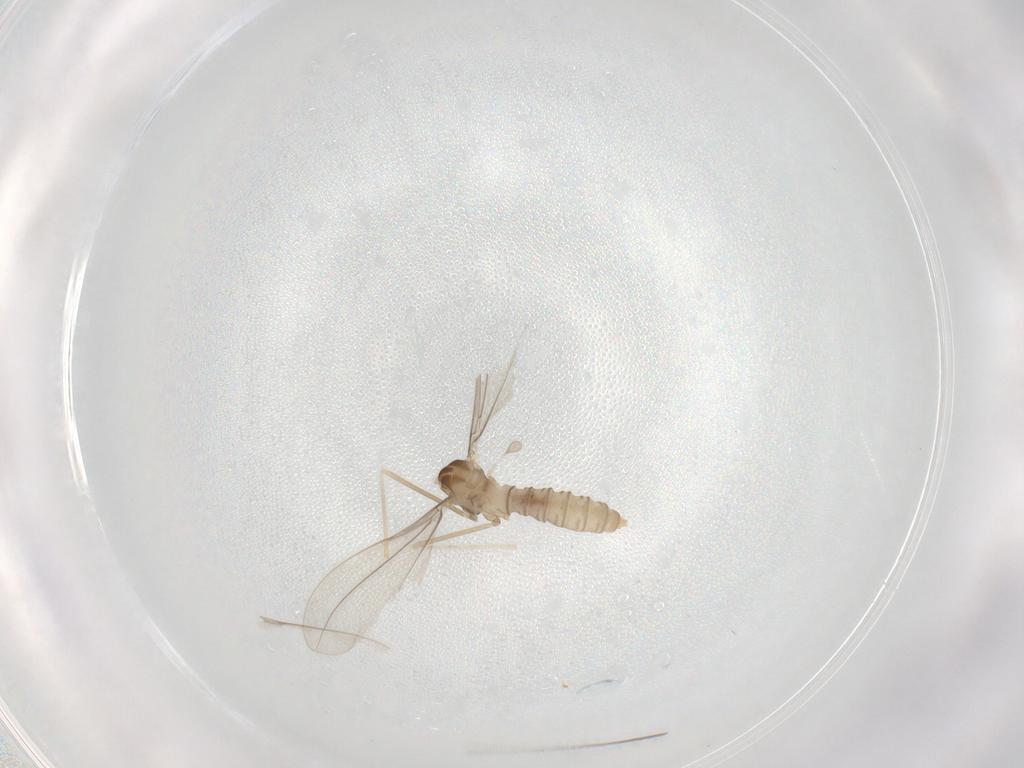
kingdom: Animalia
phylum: Arthropoda
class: Insecta
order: Diptera
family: Cecidomyiidae
